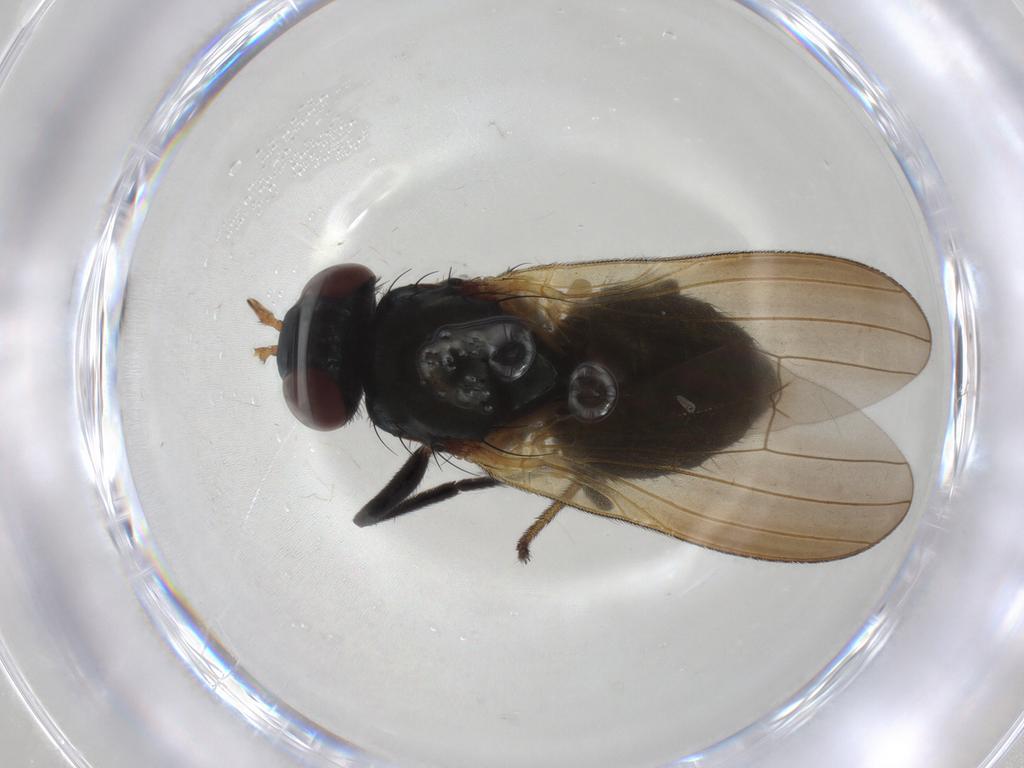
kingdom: Animalia
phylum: Arthropoda
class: Insecta
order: Diptera
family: Lauxaniidae
